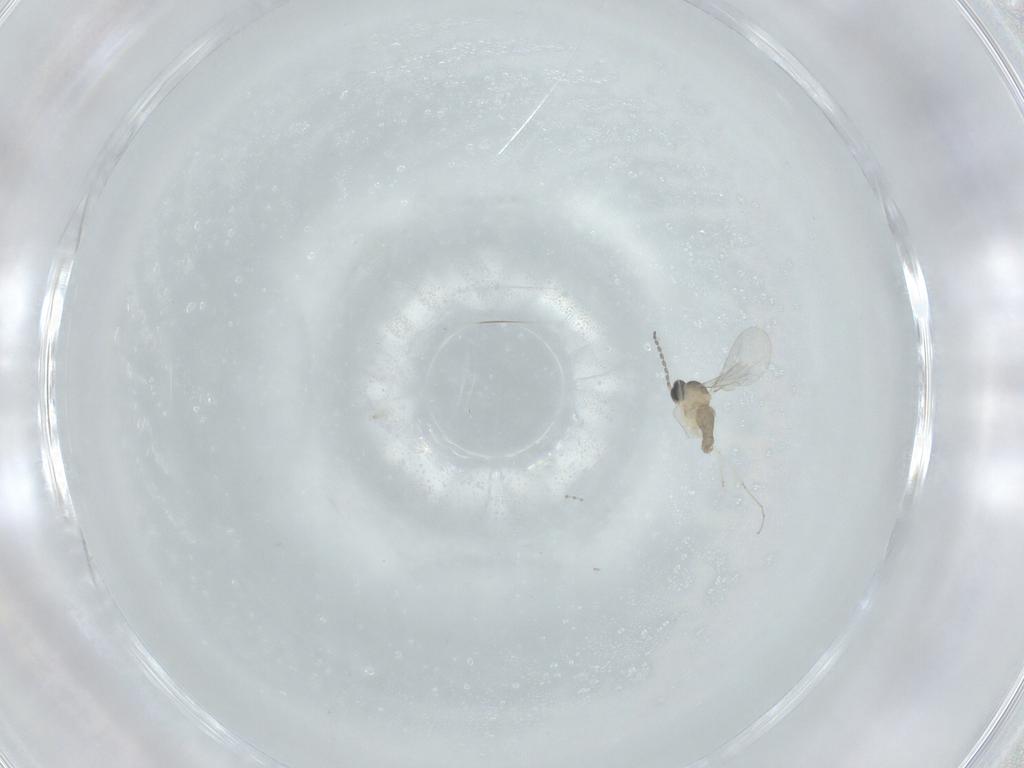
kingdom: Animalia
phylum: Arthropoda
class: Insecta
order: Diptera
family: Cecidomyiidae
